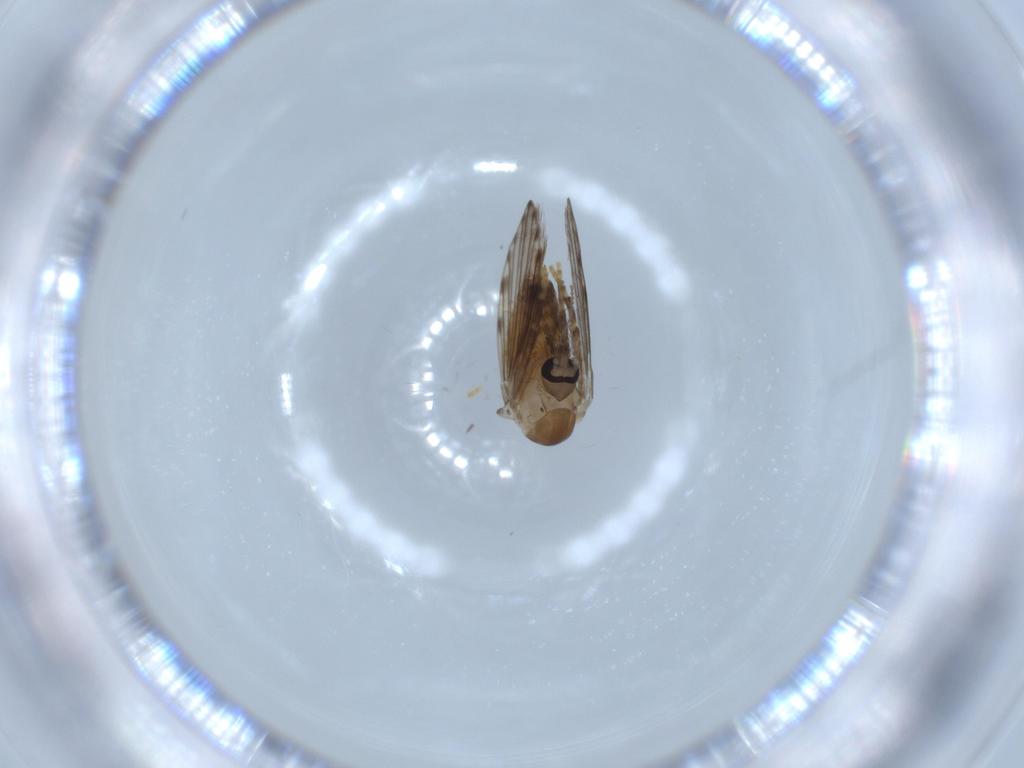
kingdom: Animalia
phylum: Arthropoda
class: Insecta
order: Diptera
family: Psychodidae
